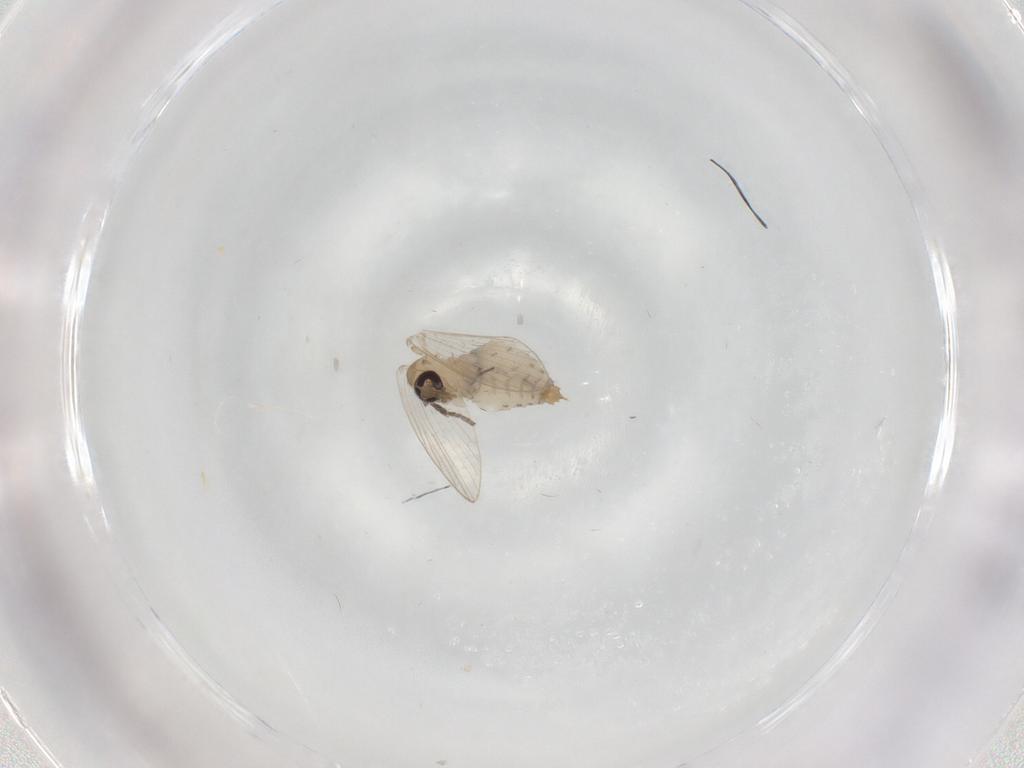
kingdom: Animalia
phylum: Arthropoda
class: Insecta
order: Diptera
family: Psychodidae
